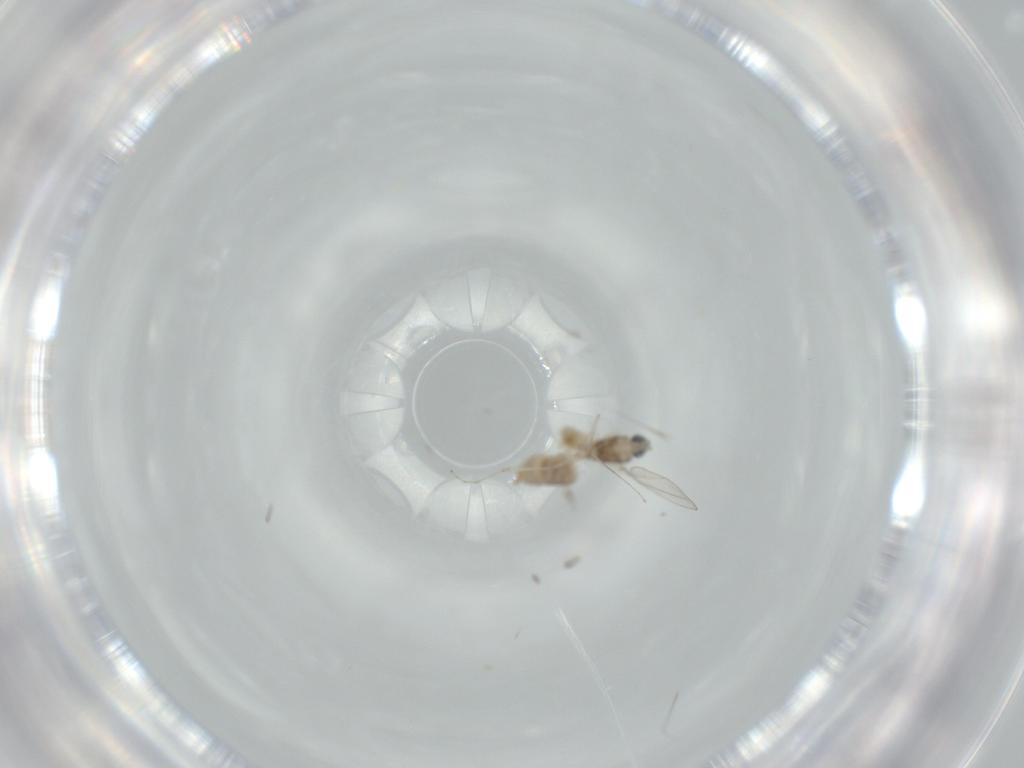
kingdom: Animalia
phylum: Arthropoda
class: Insecta
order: Diptera
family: Cecidomyiidae
